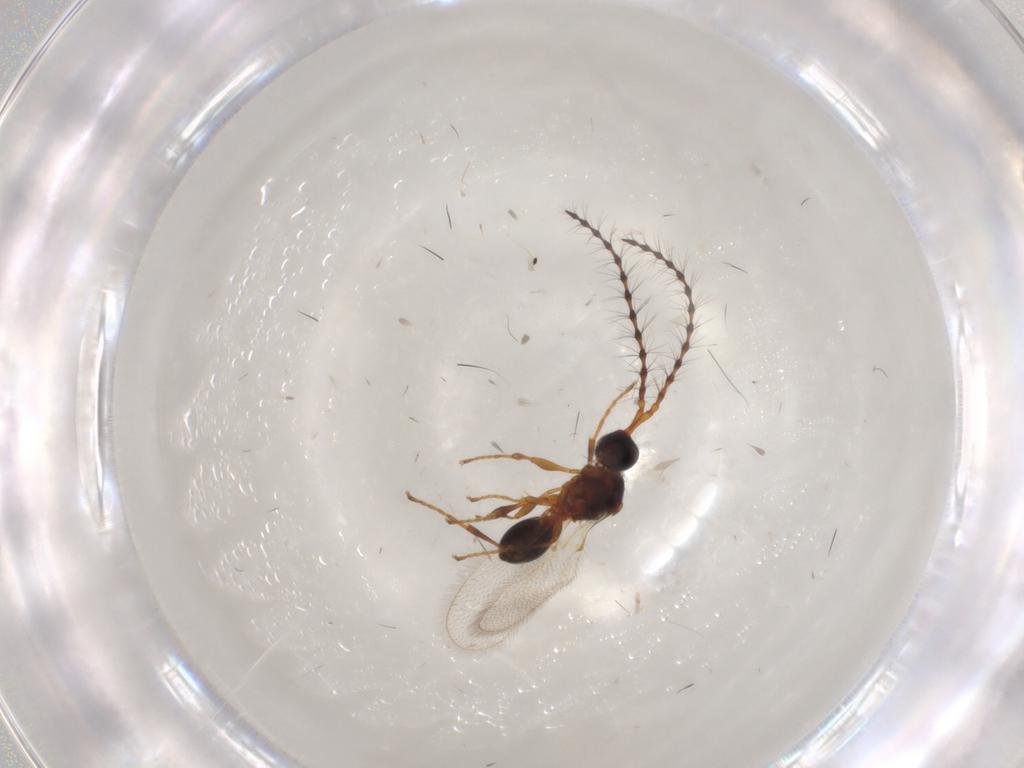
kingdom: Animalia
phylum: Arthropoda
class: Insecta
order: Hymenoptera
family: Diapriidae
